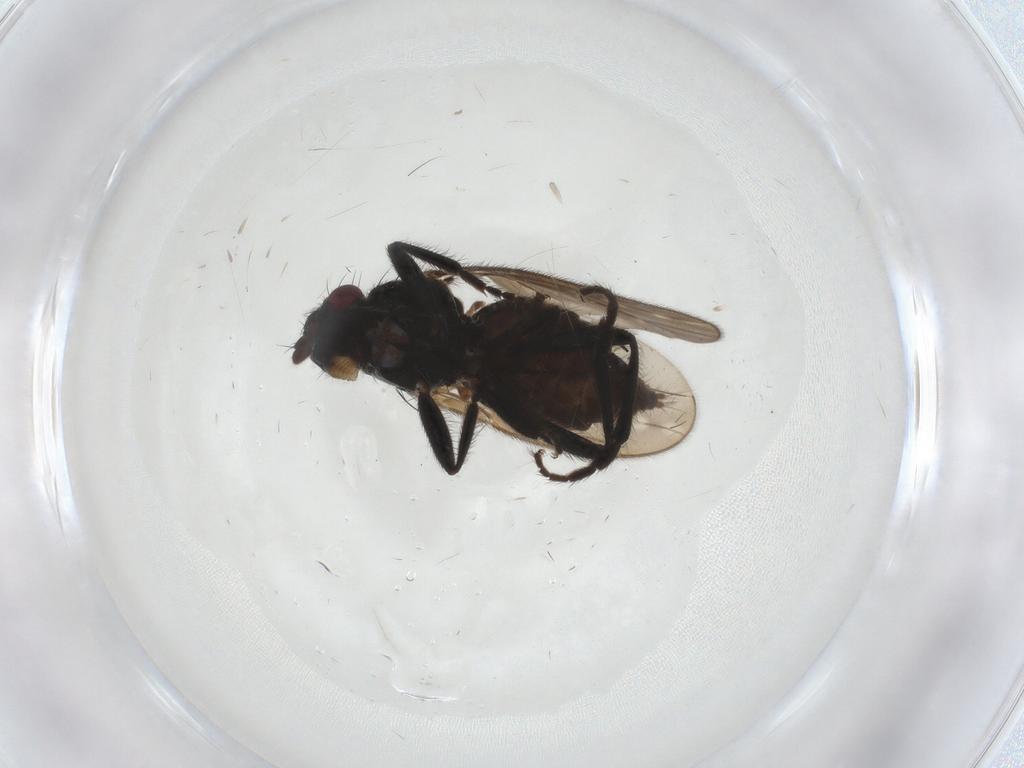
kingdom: Animalia
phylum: Arthropoda
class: Insecta
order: Diptera
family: Sphaeroceridae
